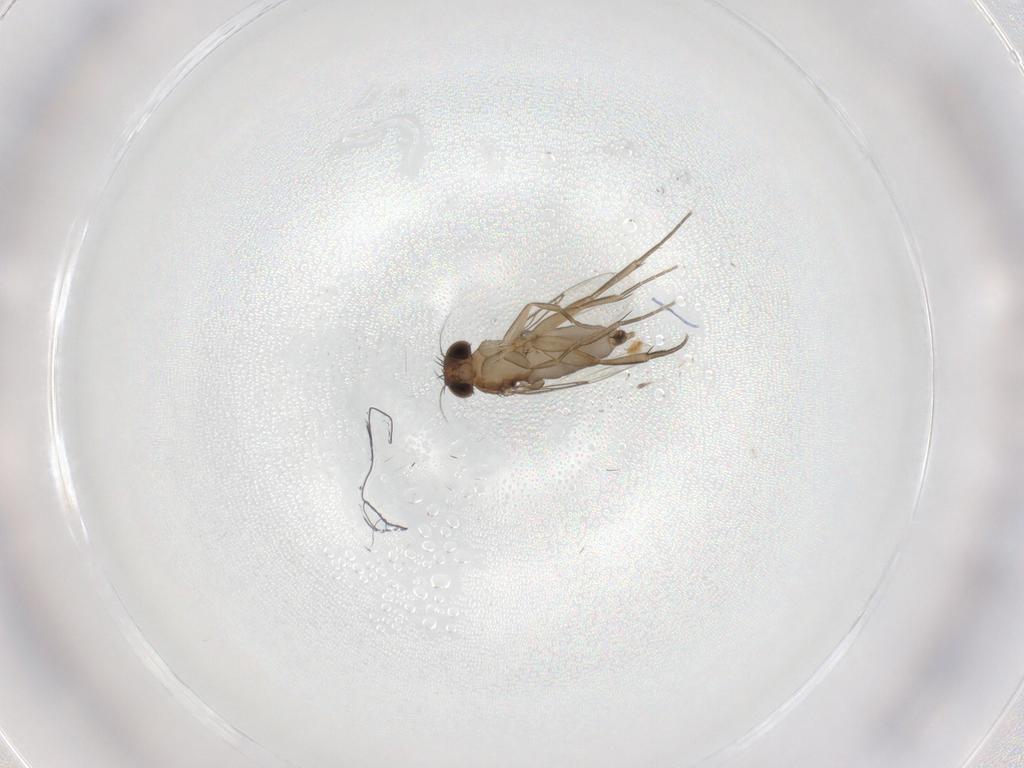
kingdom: Animalia
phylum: Arthropoda
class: Insecta
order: Diptera
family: Phoridae
